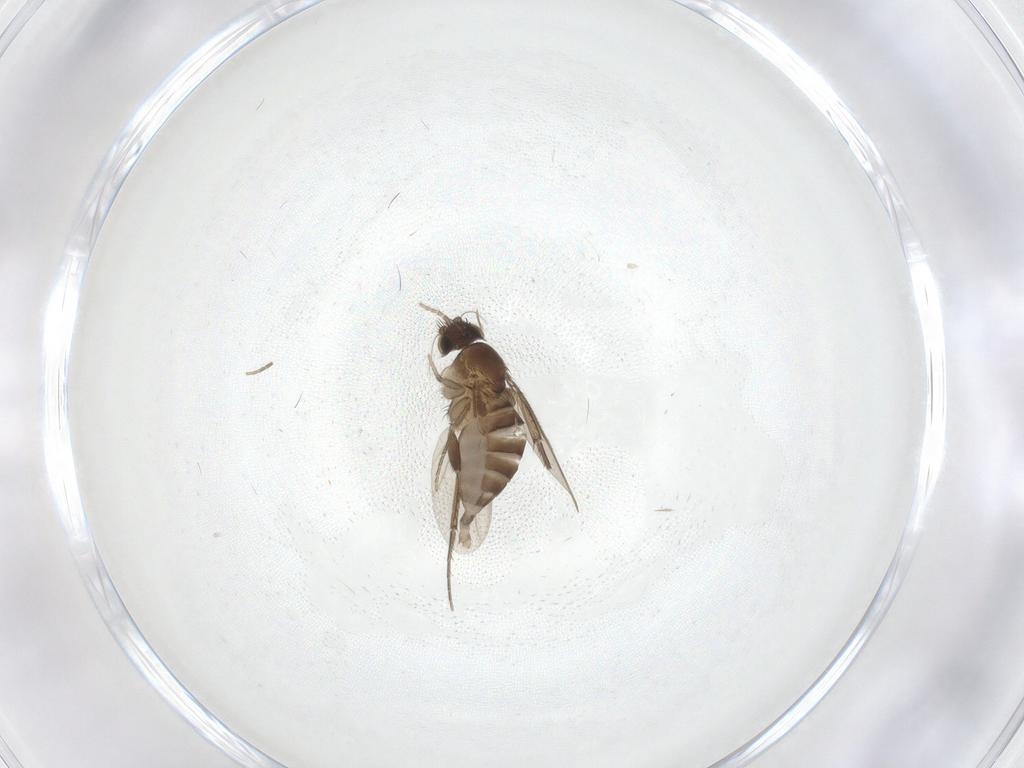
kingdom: Animalia
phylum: Arthropoda
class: Insecta
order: Diptera
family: Phoridae
